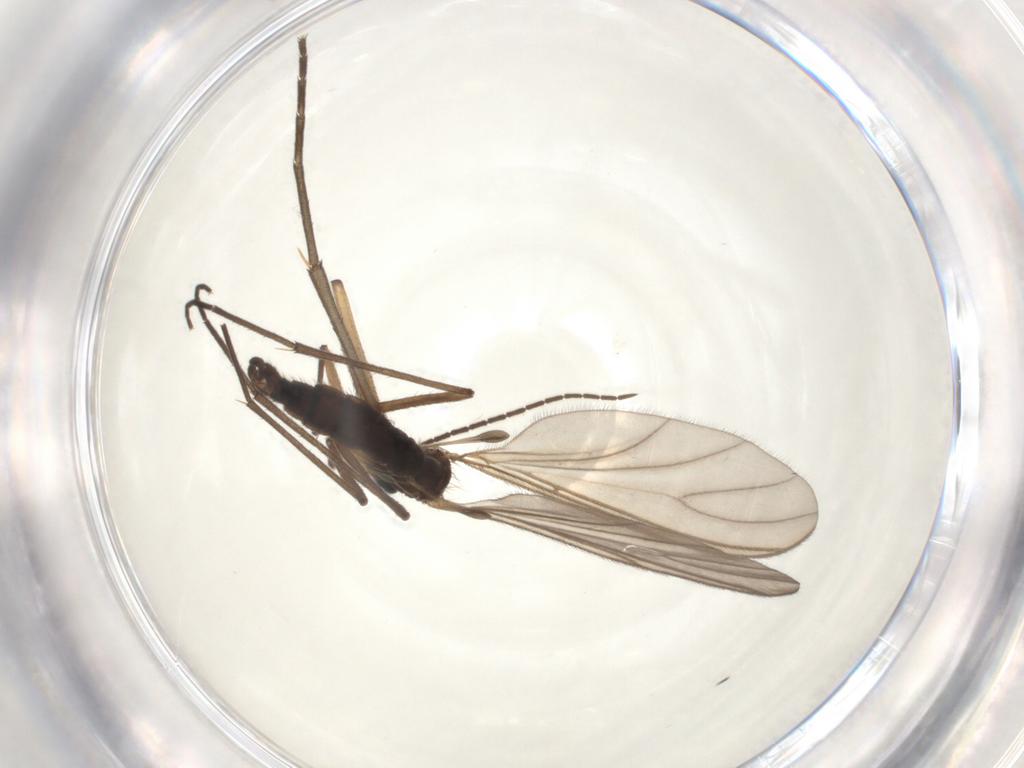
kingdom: Animalia
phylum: Arthropoda
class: Insecta
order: Diptera
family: Sciaridae
